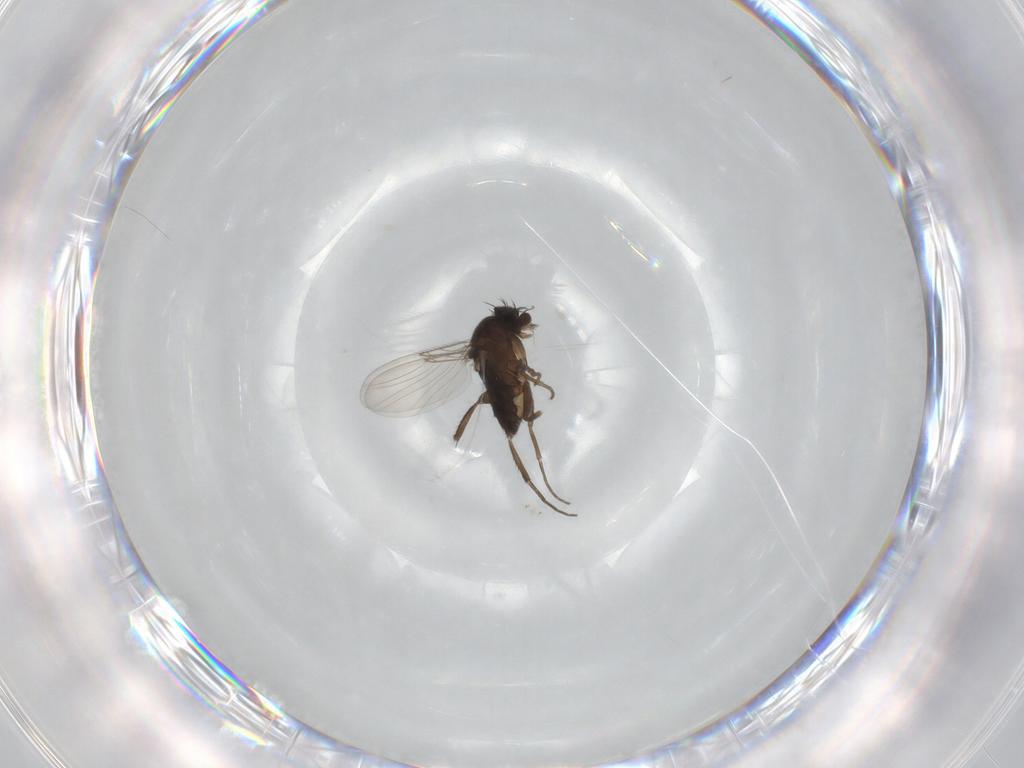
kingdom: Animalia
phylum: Arthropoda
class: Insecta
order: Diptera
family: Phoridae
